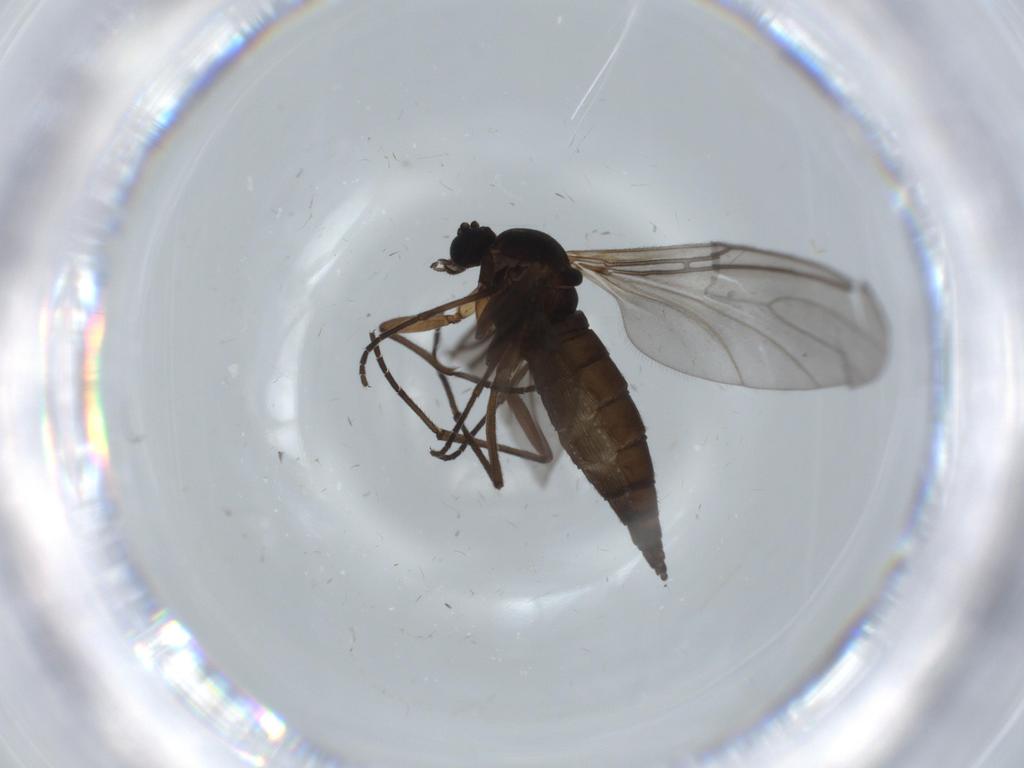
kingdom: Animalia
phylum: Arthropoda
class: Insecta
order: Diptera
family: Sciaridae
